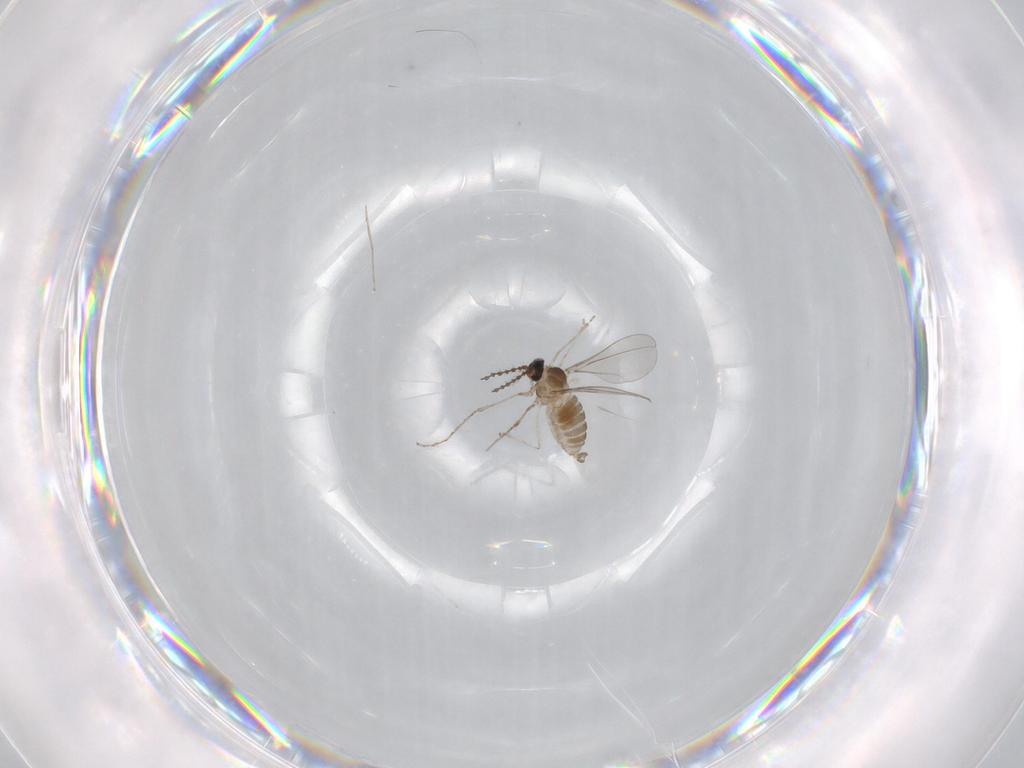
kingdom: Animalia
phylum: Arthropoda
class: Insecta
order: Diptera
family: Cecidomyiidae
